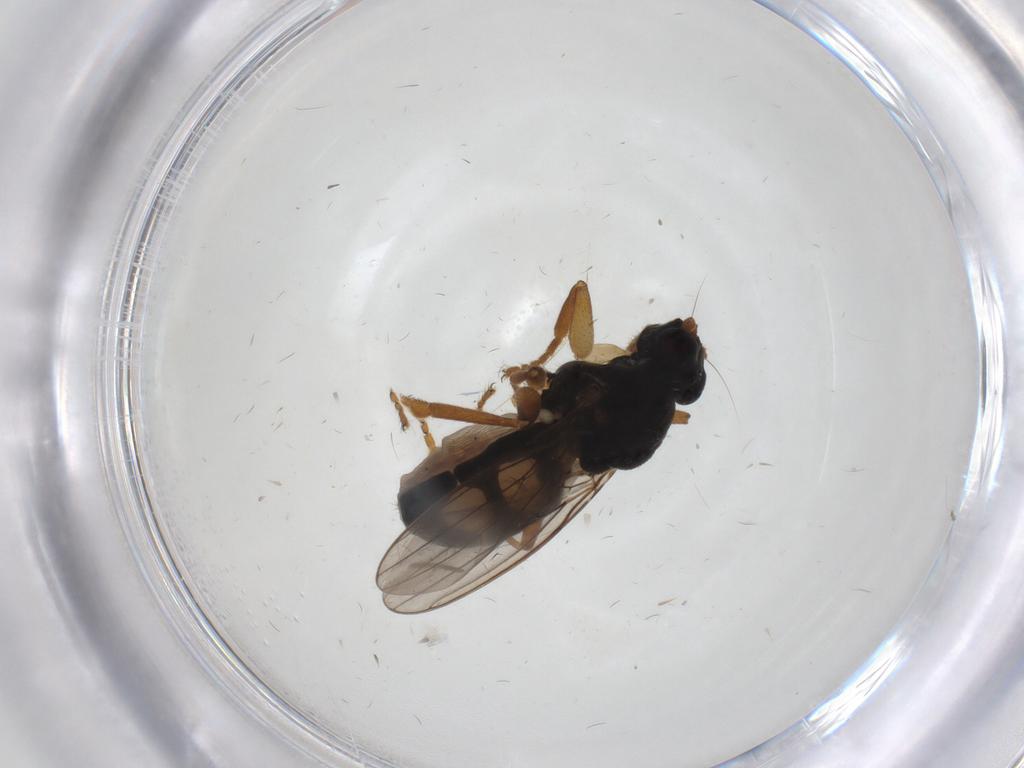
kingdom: Animalia
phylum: Arthropoda
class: Insecta
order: Diptera
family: Sphaeroceridae
